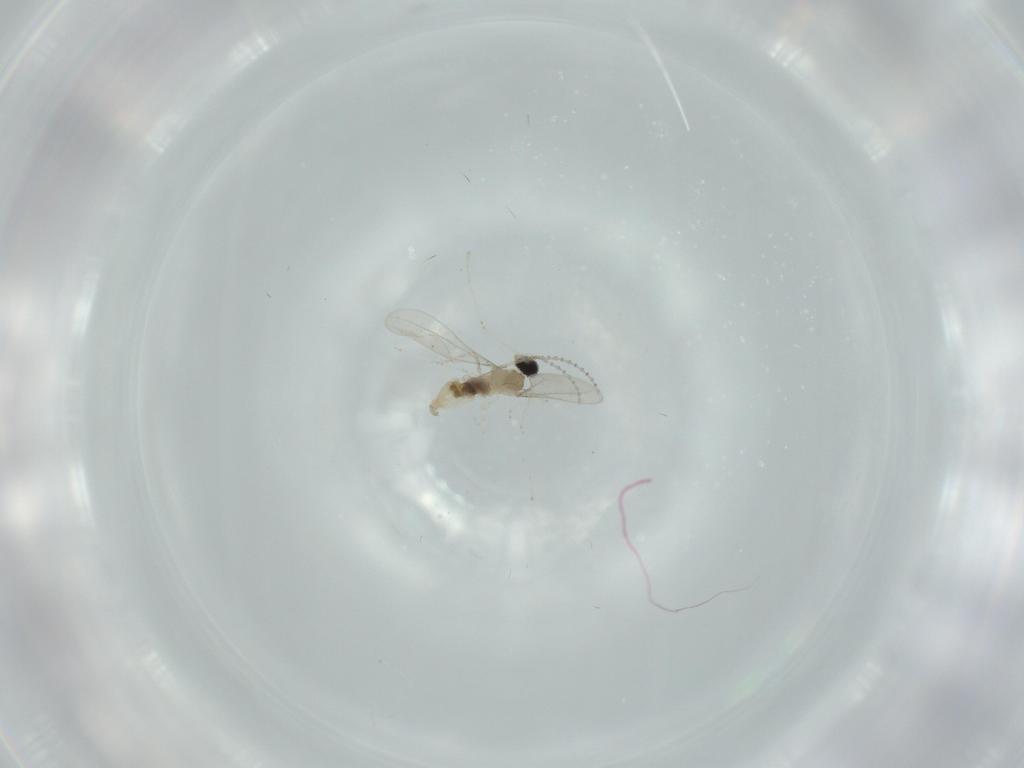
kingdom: Animalia
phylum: Arthropoda
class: Insecta
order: Diptera
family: Cecidomyiidae
